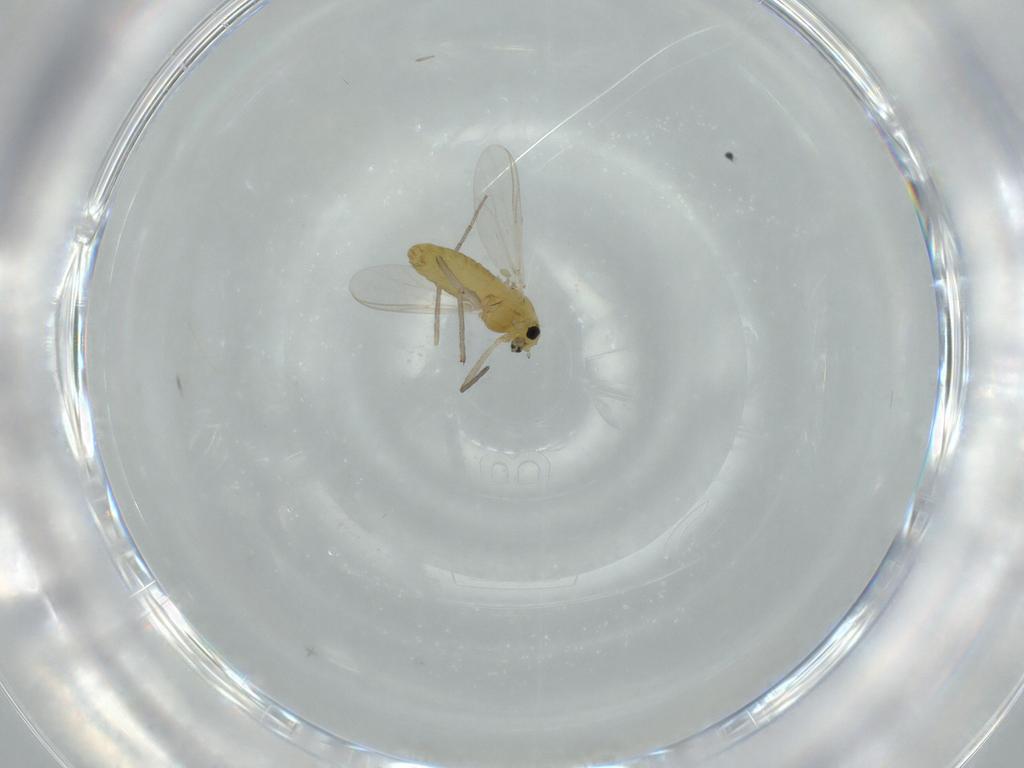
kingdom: Animalia
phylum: Arthropoda
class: Insecta
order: Diptera
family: Chironomidae
